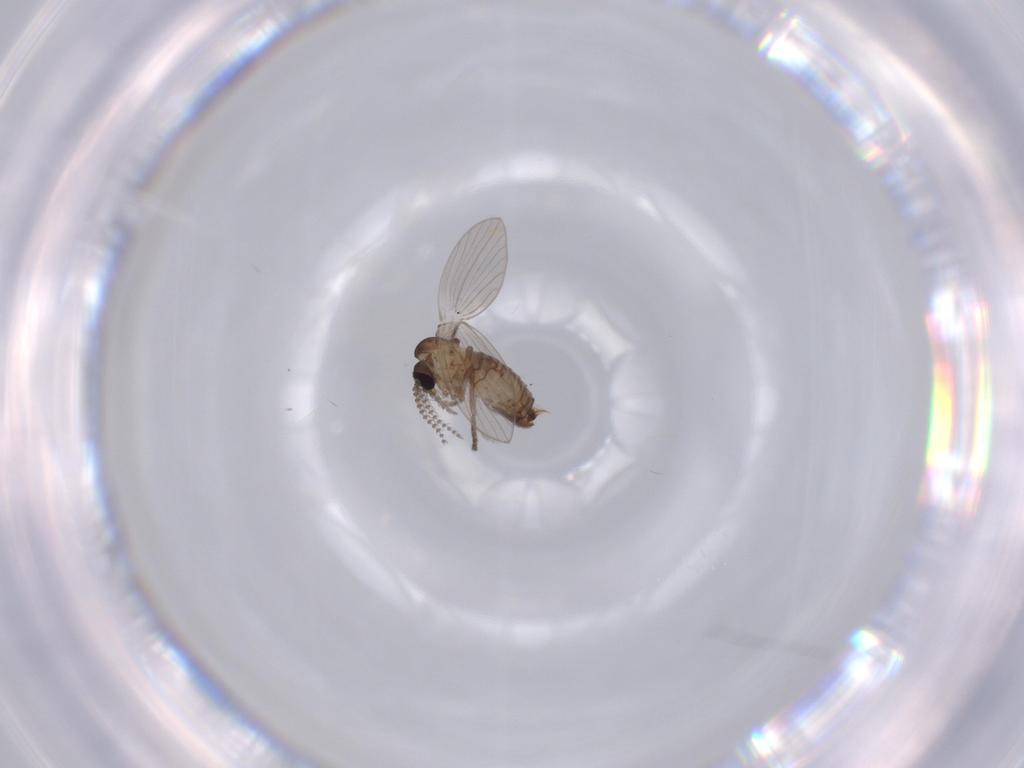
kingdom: Animalia
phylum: Arthropoda
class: Insecta
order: Diptera
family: Psychodidae
